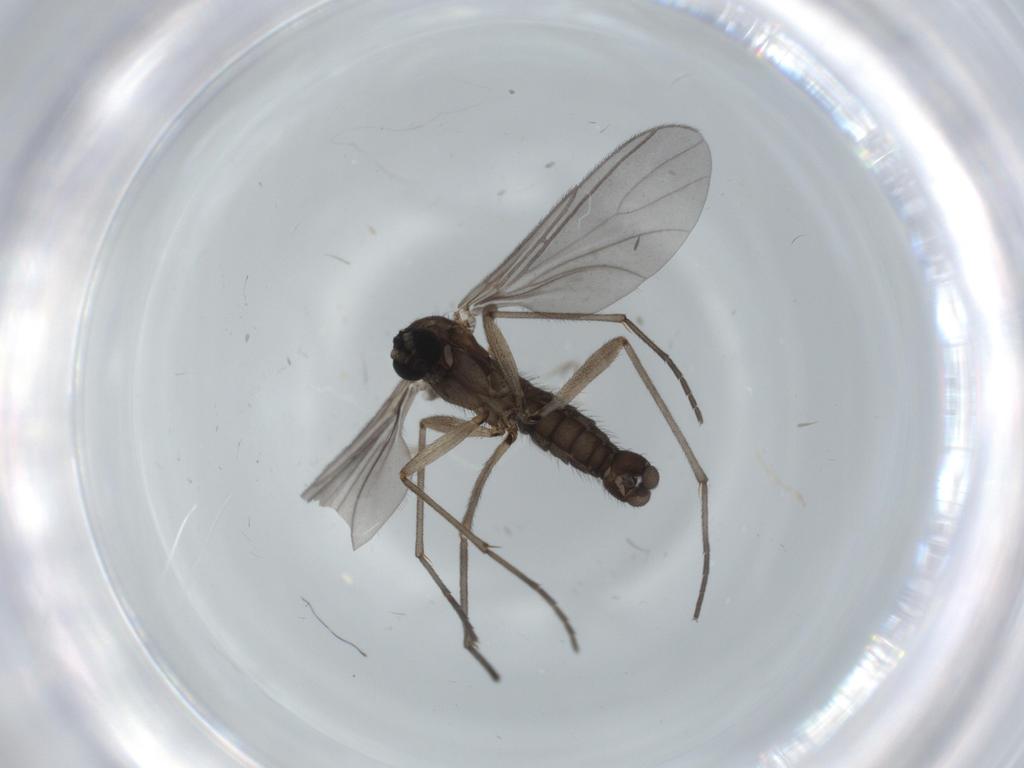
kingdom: Animalia
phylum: Arthropoda
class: Insecta
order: Diptera
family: Sciaridae
